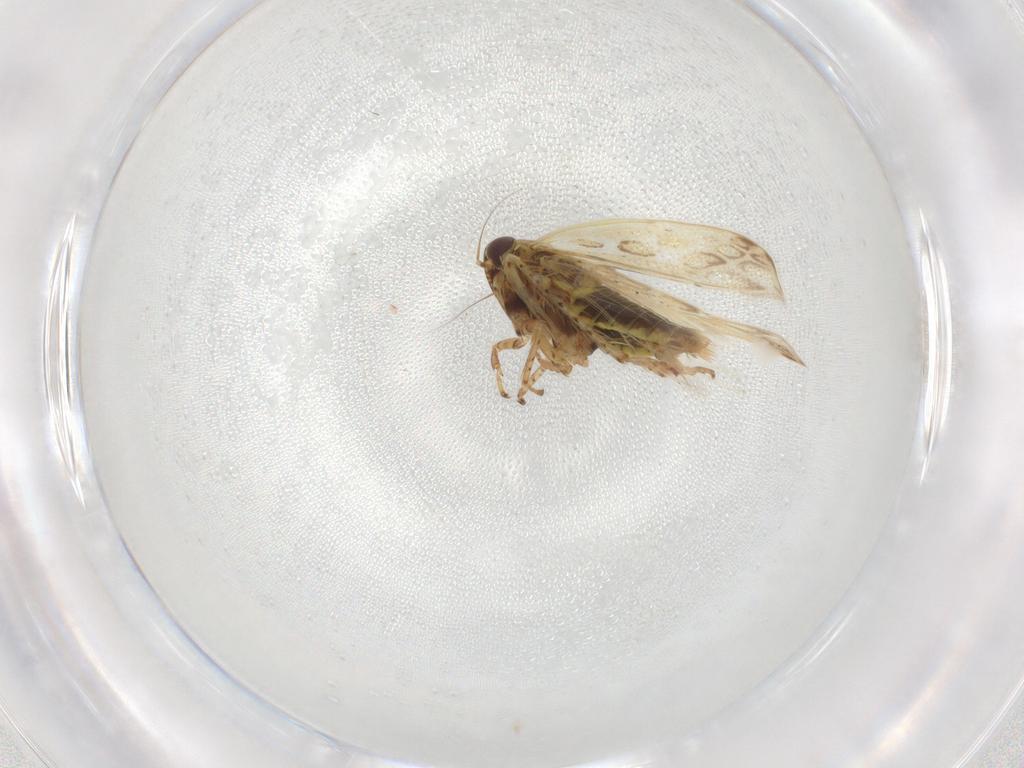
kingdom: Animalia
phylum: Arthropoda
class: Insecta
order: Hemiptera
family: Cicadellidae
